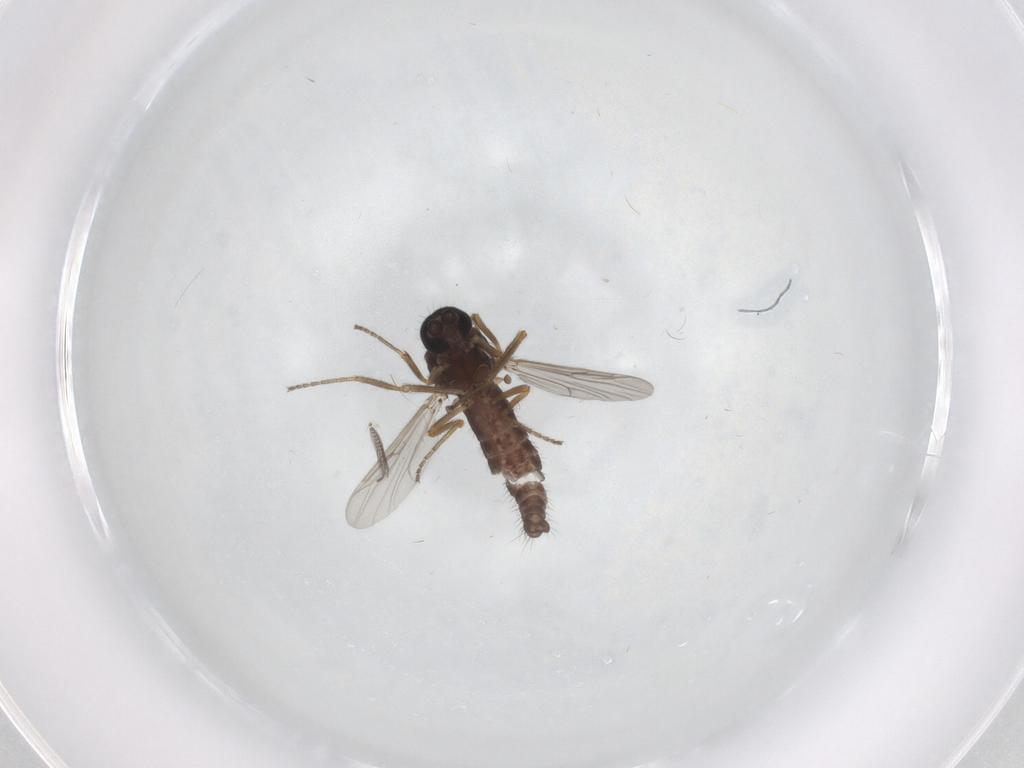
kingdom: Animalia
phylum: Arthropoda
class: Insecta
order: Diptera
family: Ceratopogonidae
